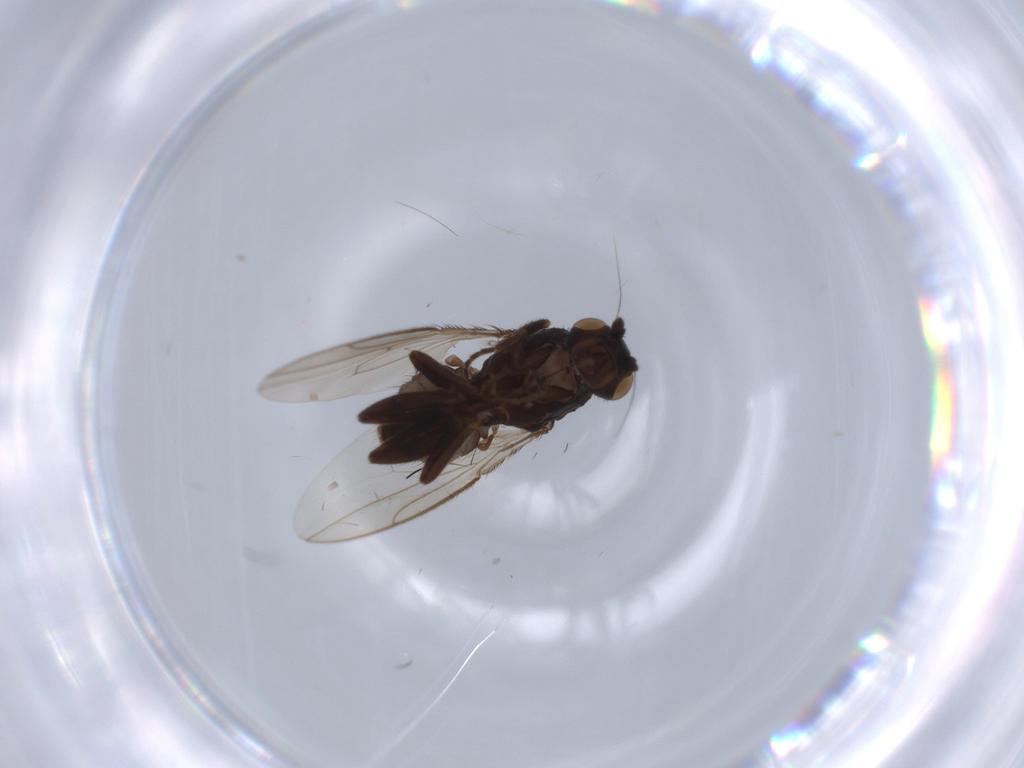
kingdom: Animalia
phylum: Arthropoda
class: Insecta
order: Diptera
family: Sphaeroceridae
